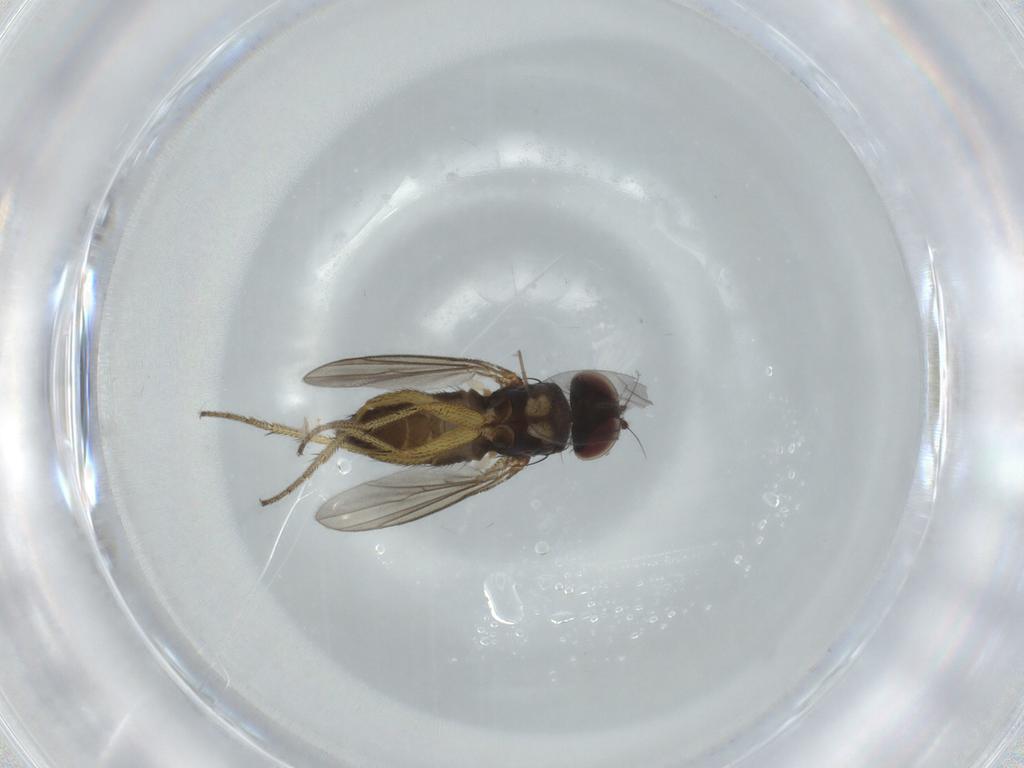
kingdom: Animalia
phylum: Arthropoda
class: Insecta
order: Diptera
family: Dolichopodidae
